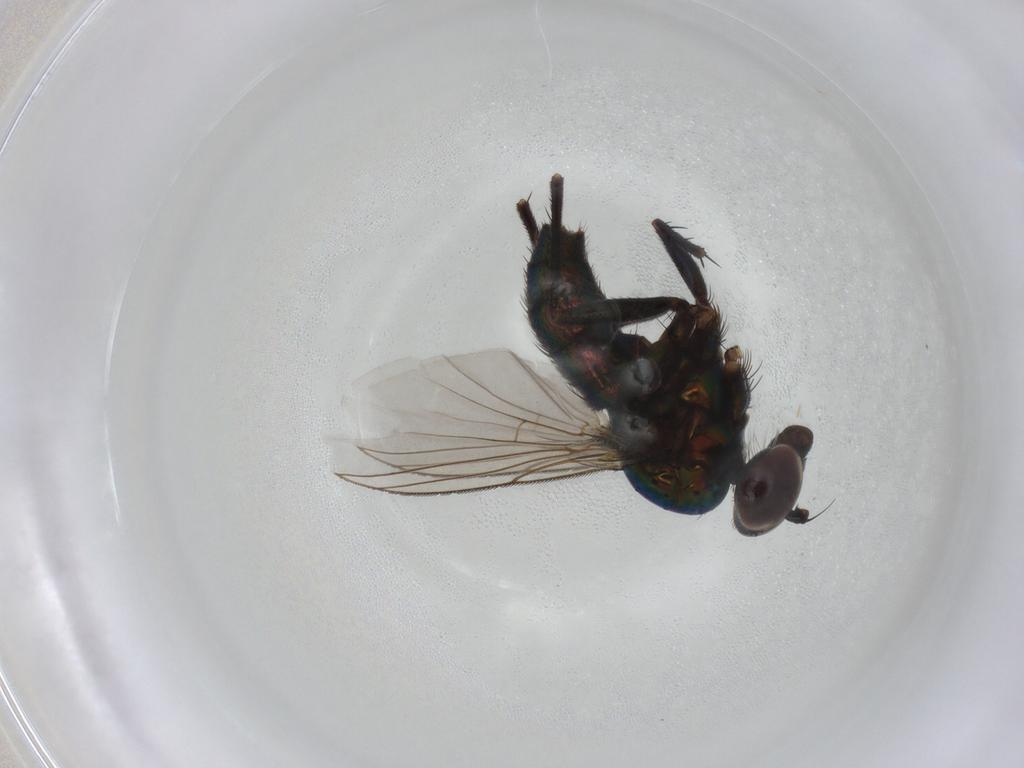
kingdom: Animalia
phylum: Arthropoda
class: Insecta
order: Diptera
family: Dolichopodidae
